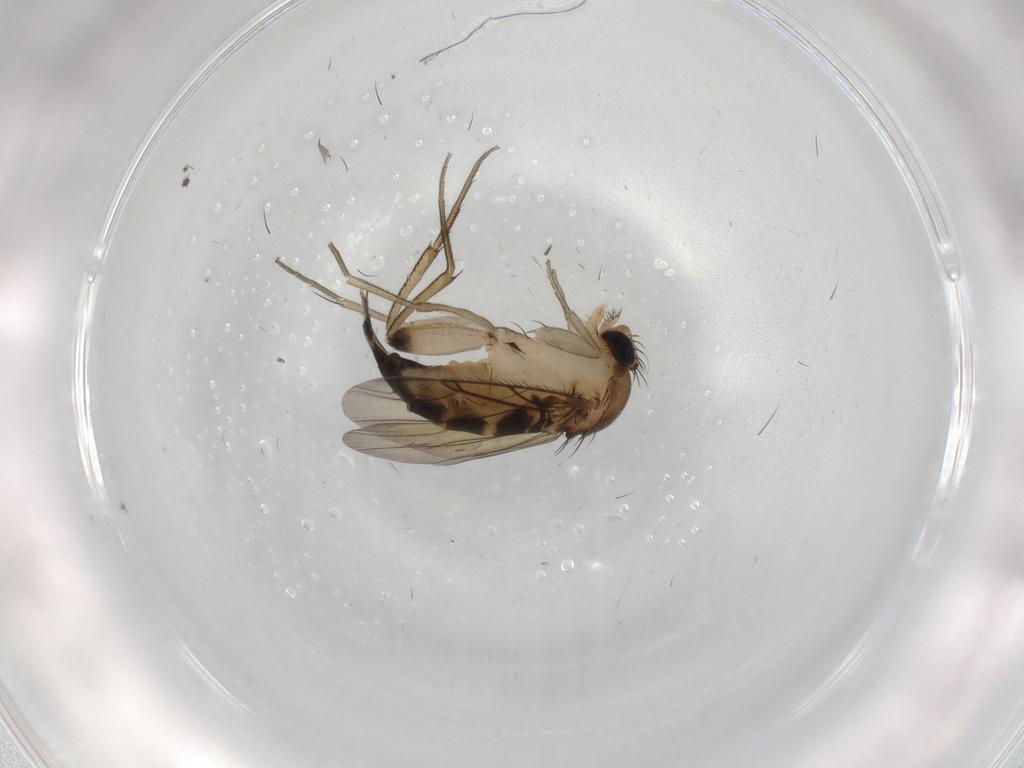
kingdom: Animalia
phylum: Arthropoda
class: Insecta
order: Diptera
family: Phoridae
